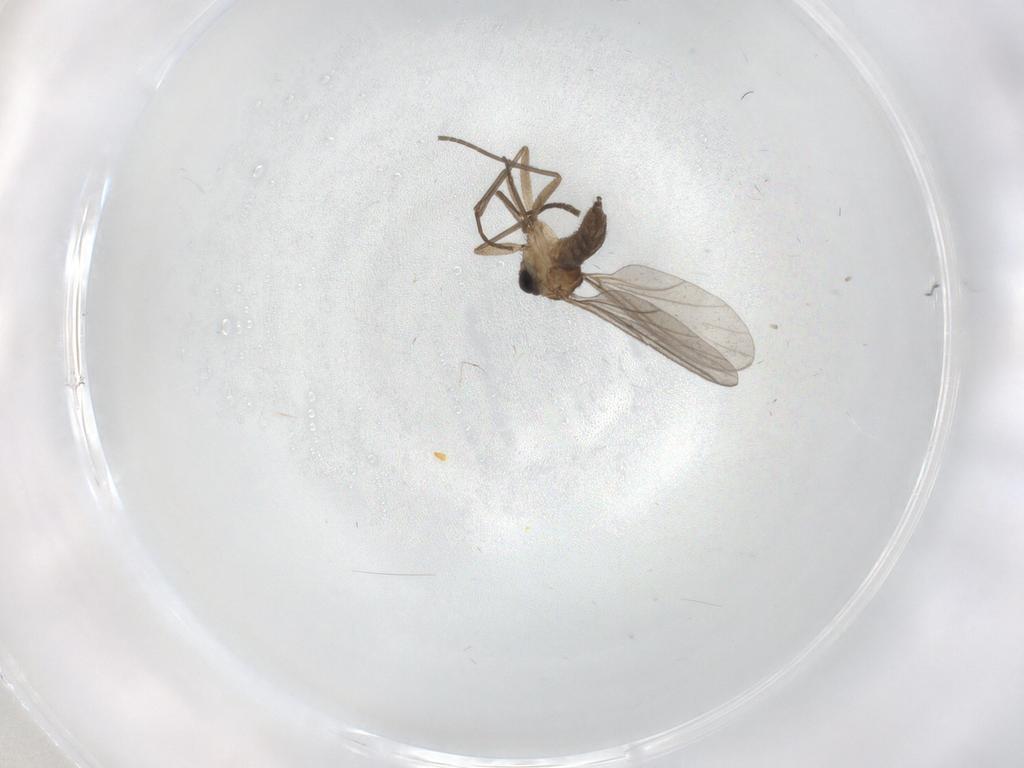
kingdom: Animalia
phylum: Arthropoda
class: Insecta
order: Diptera
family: Sciaridae
